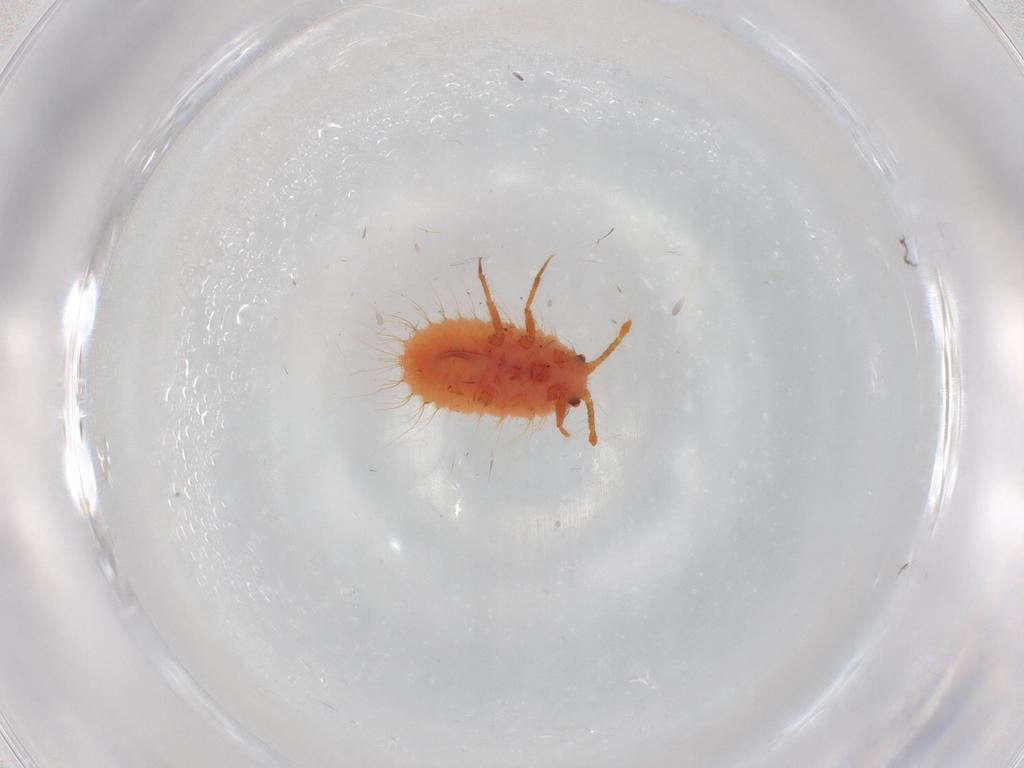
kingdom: Animalia
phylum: Arthropoda
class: Insecta
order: Hemiptera
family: Coccoidea_incertae_sedis
